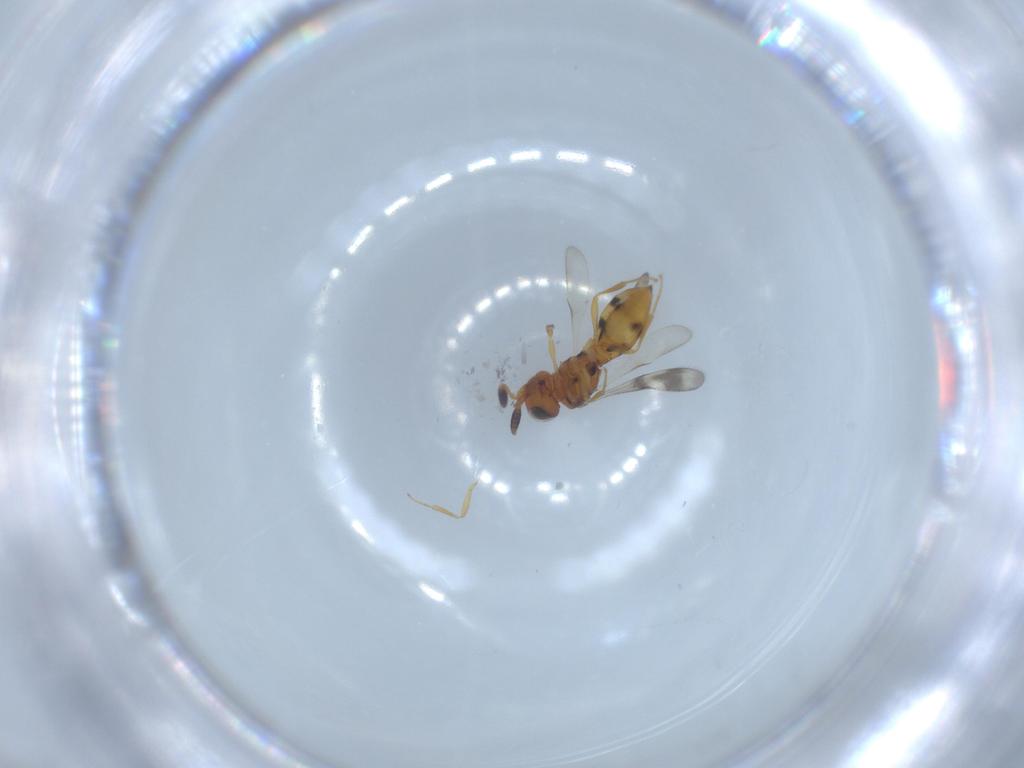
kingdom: Animalia
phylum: Arthropoda
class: Insecta
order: Hymenoptera
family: Scelionidae
